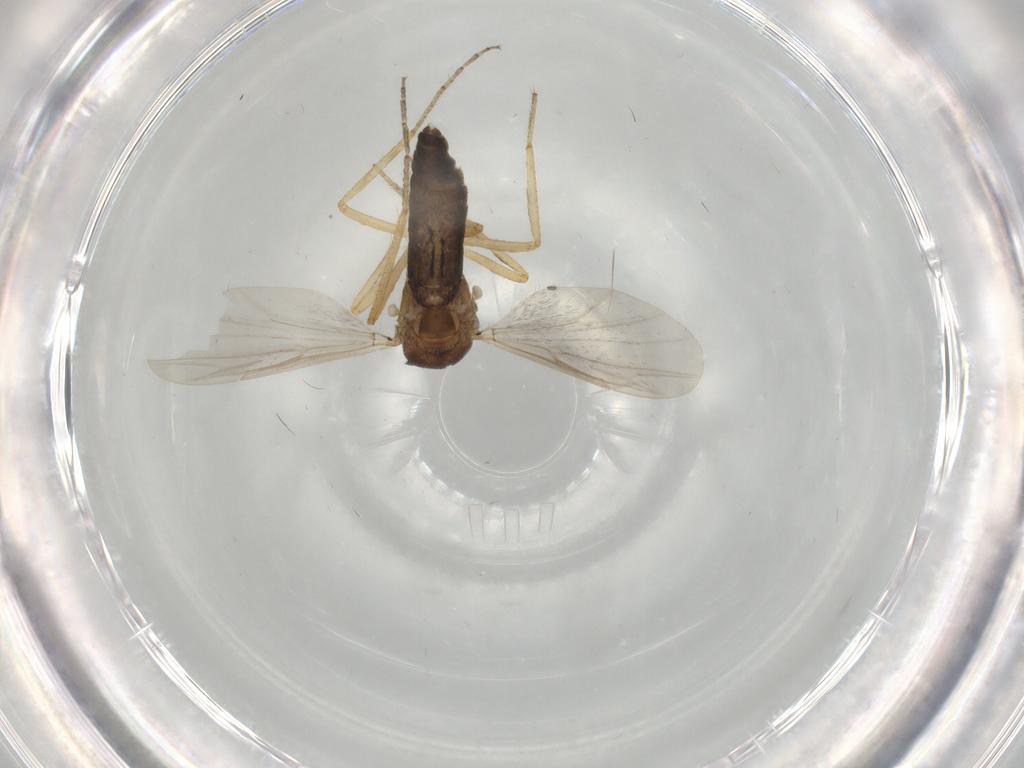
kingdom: Animalia
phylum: Arthropoda
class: Insecta
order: Diptera
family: Ceratopogonidae
